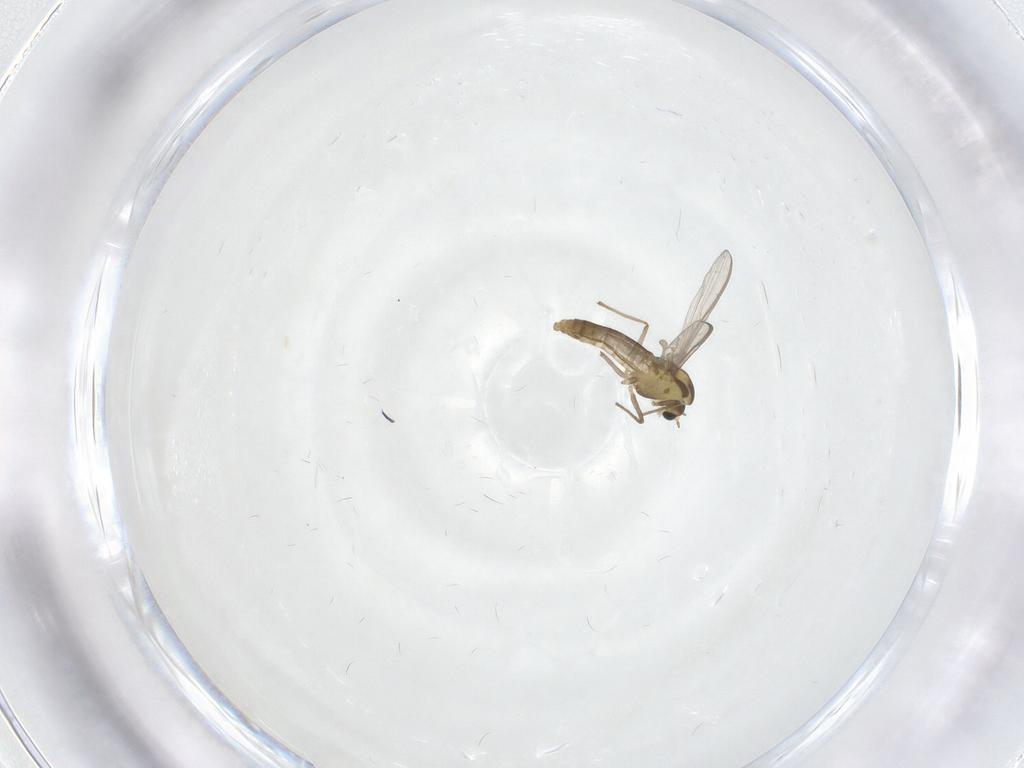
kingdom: Animalia
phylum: Arthropoda
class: Insecta
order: Diptera
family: Chironomidae
